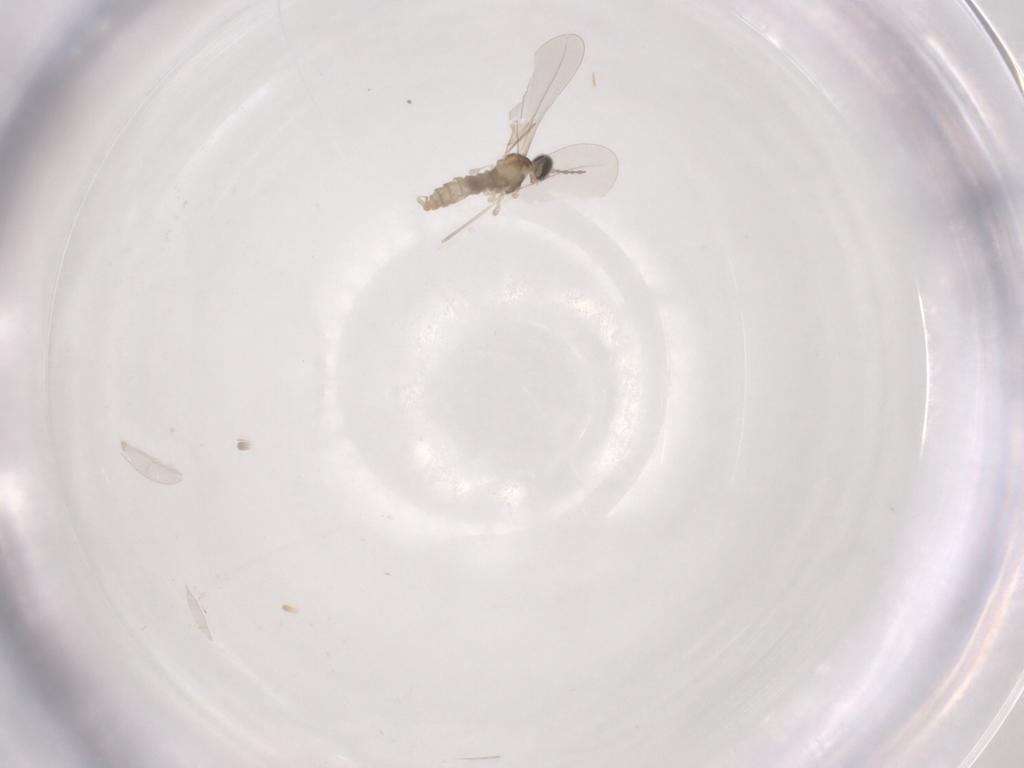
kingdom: Animalia
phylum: Arthropoda
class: Insecta
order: Diptera
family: Cecidomyiidae
